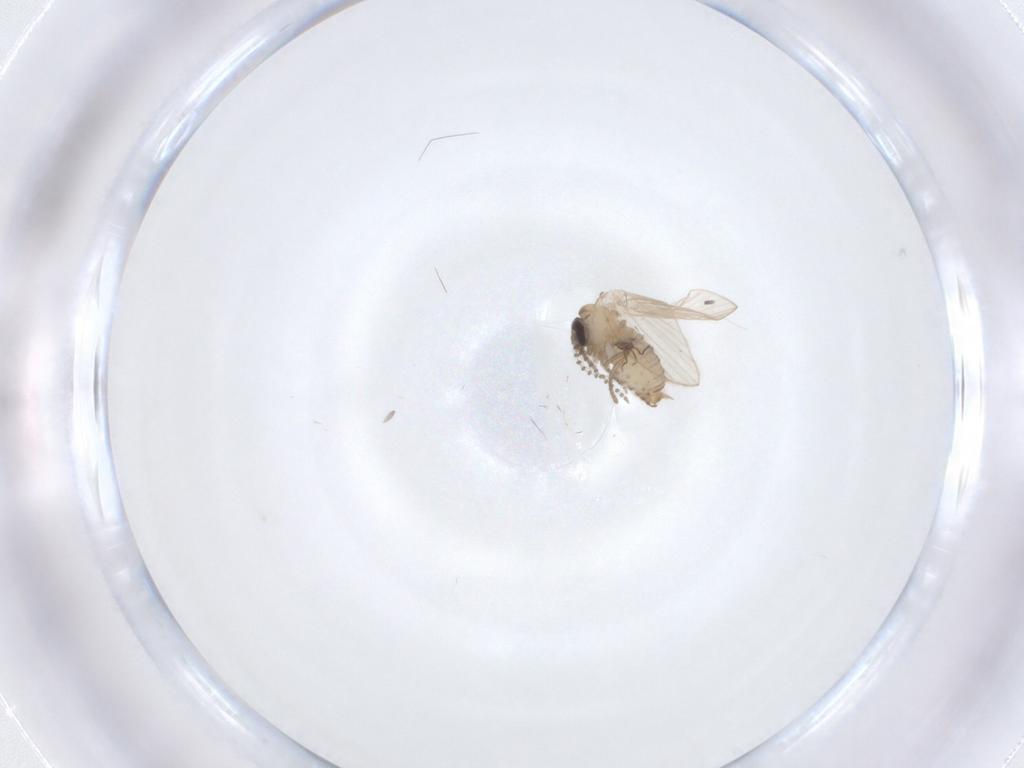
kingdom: Animalia
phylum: Arthropoda
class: Insecta
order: Diptera
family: Psychodidae
